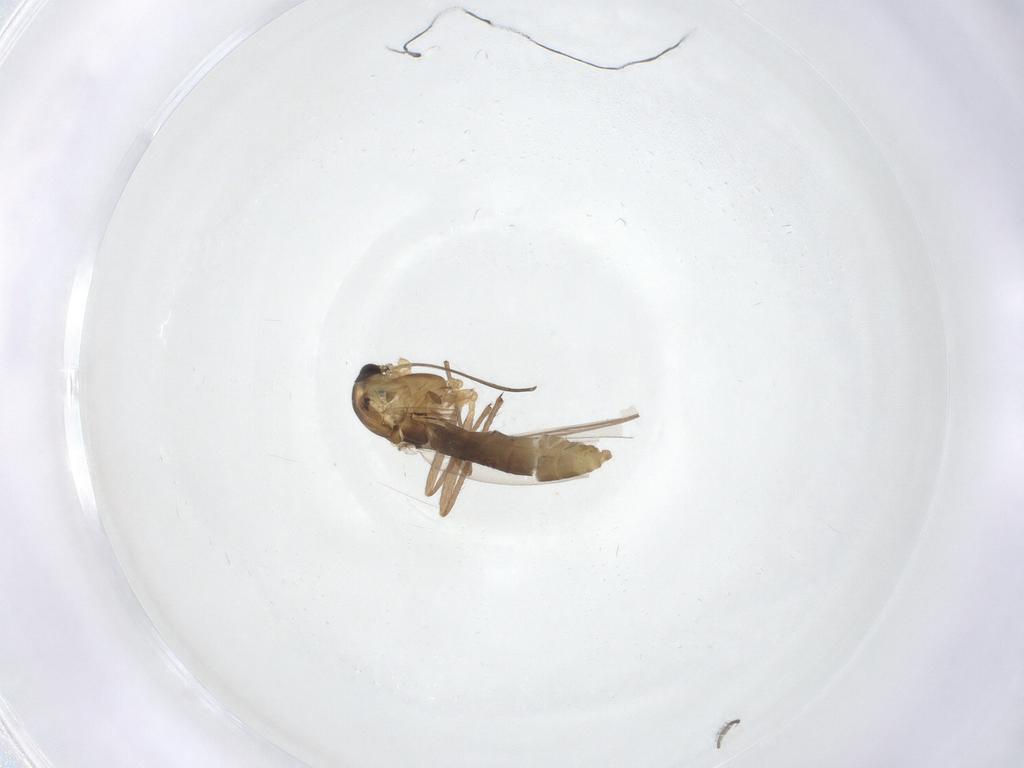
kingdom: Animalia
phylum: Arthropoda
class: Insecta
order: Diptera
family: Chironomidae
